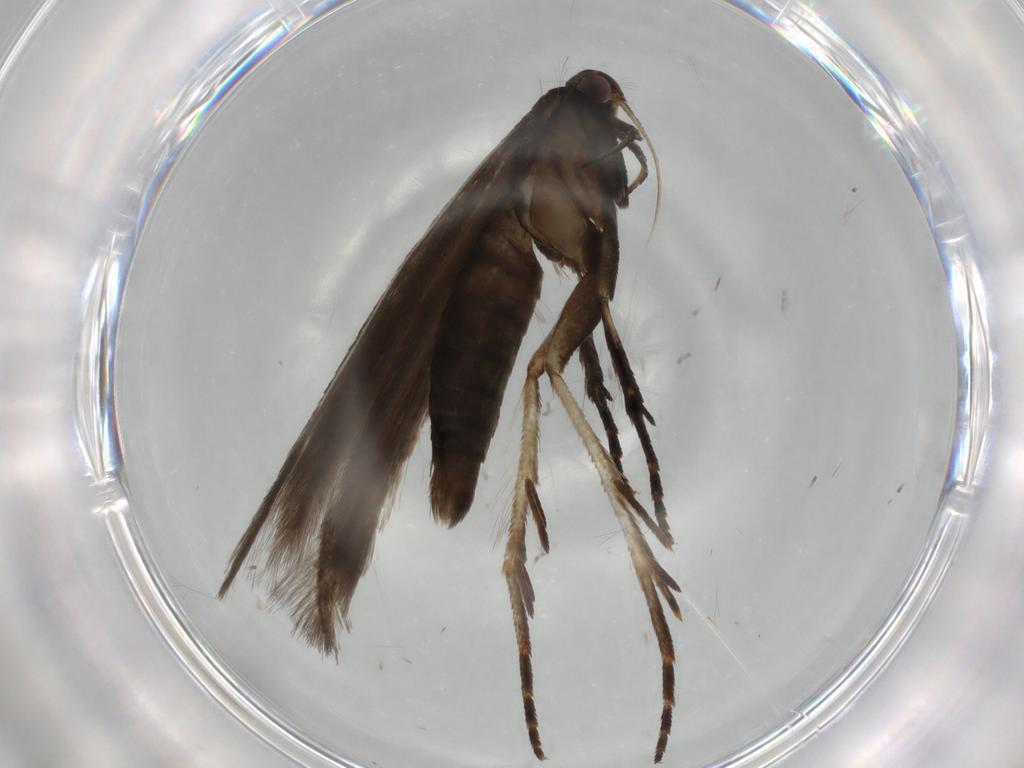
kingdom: Animalia
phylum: Arthropoda
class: Insecta
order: Lepidoptera
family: Gelechiidae
